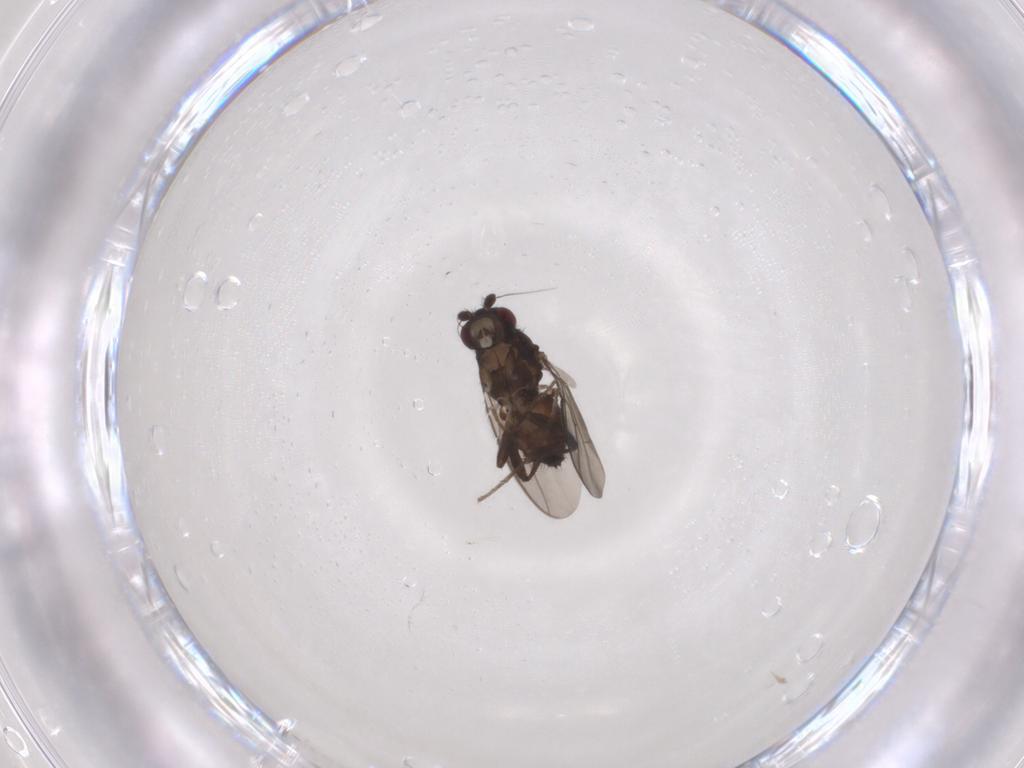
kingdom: Animalia
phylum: Arthropoda
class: Insecta
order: Diptera
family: Sphaeroceridae
